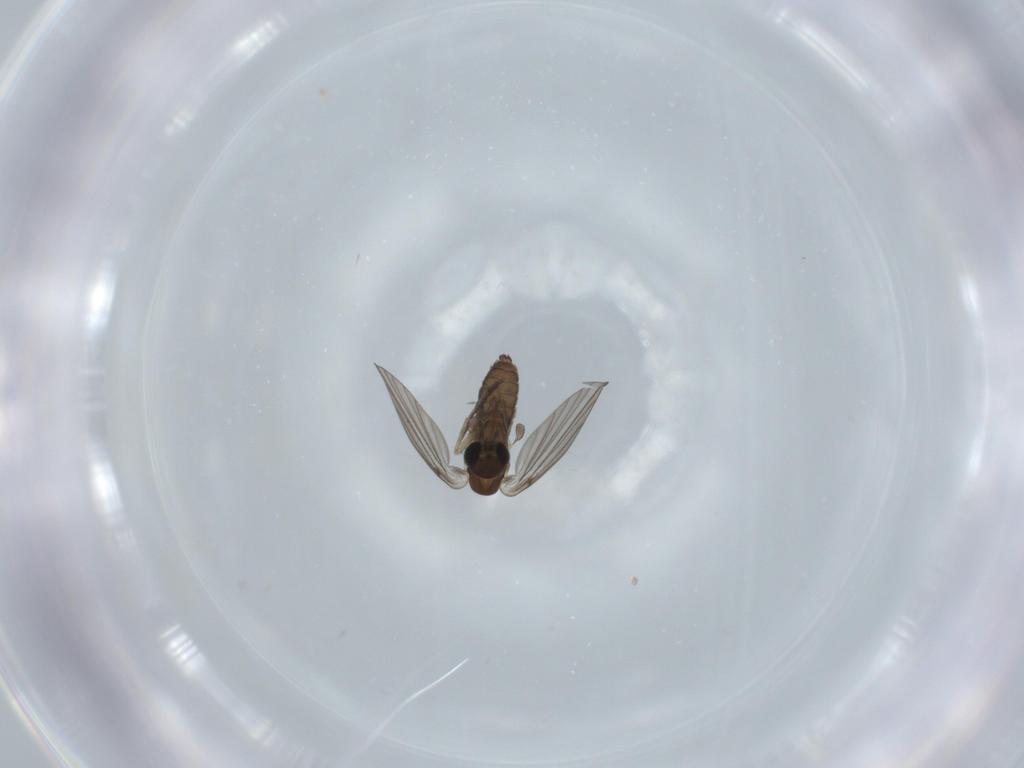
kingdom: Animalia
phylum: Arthropoda
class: Insecta
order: Diptera
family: Psychodidae
